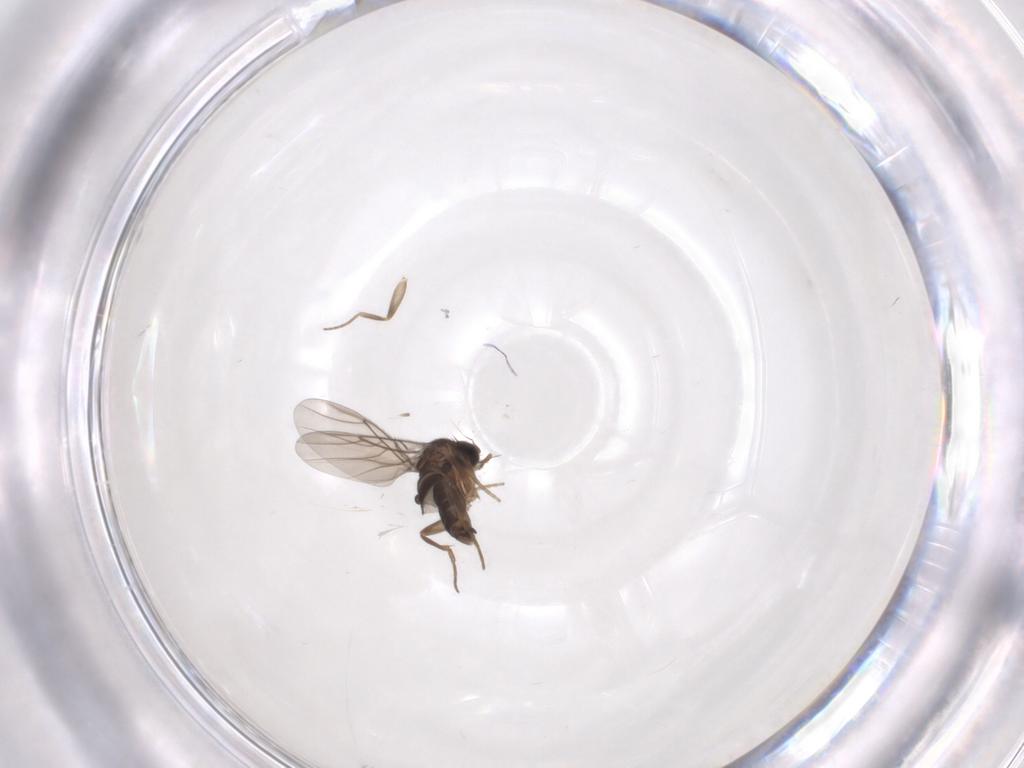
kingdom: Animalia
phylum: Arthropoda
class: Insecta
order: Diptera
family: Phoridae
